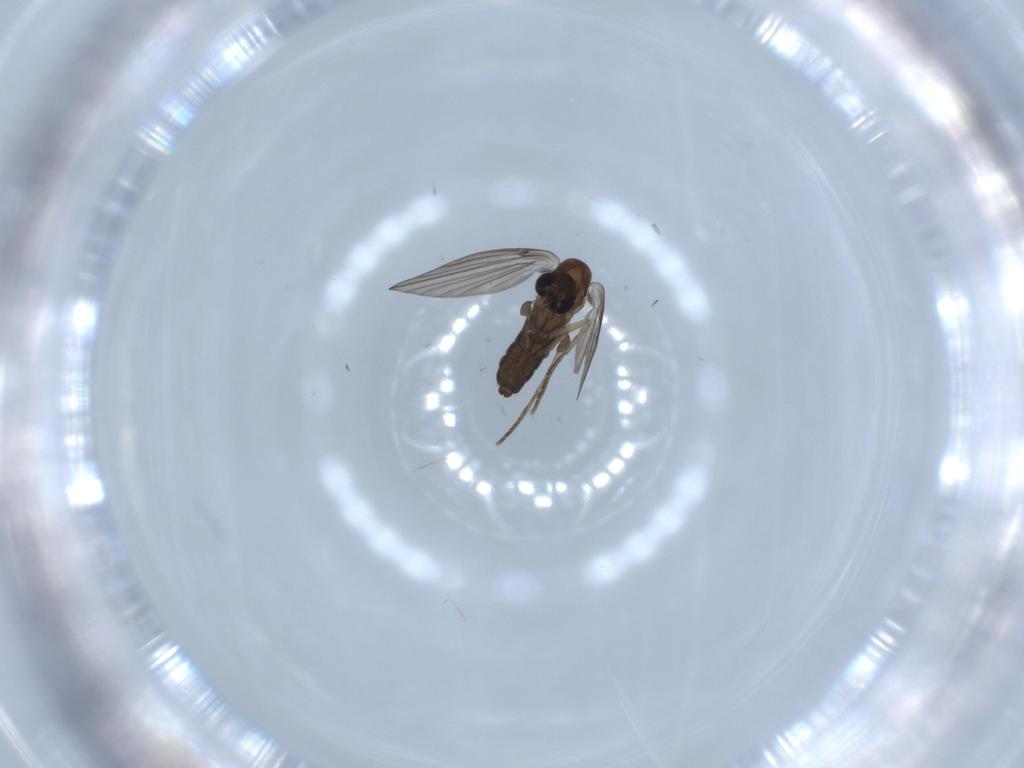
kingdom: Animalia
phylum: Arthropoda
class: Insecta
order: Diptera
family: Psychodidae
